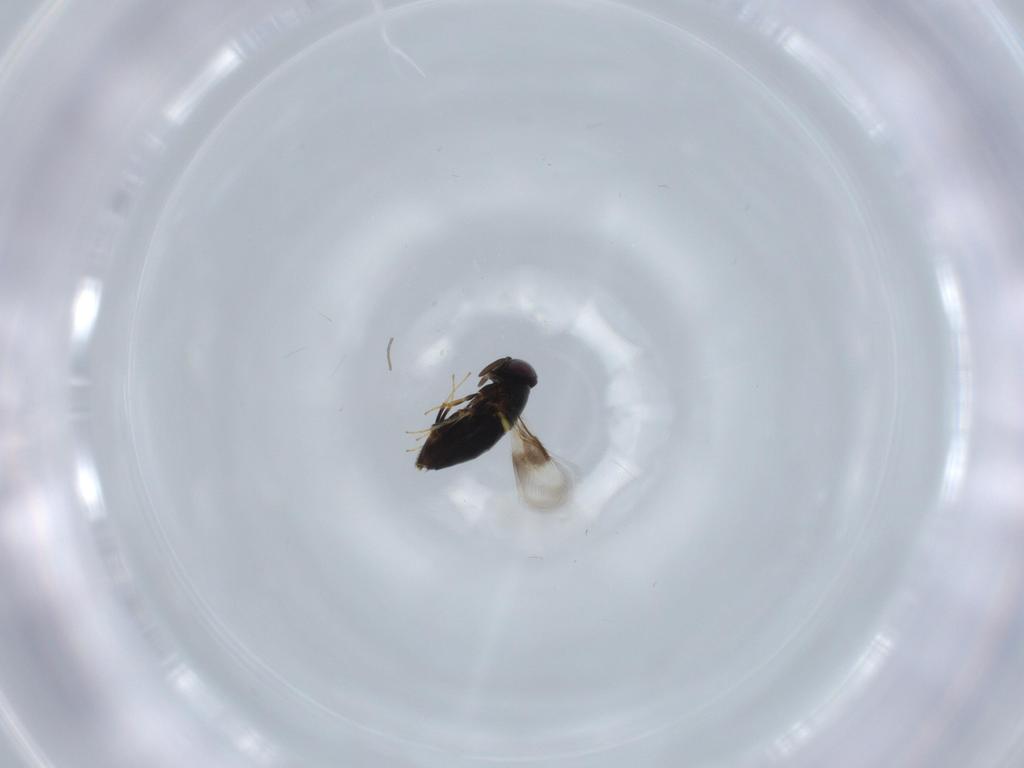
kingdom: Animalia
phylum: Arthropoda
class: Insecta
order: Hymenoptera
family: Signiphoridae
